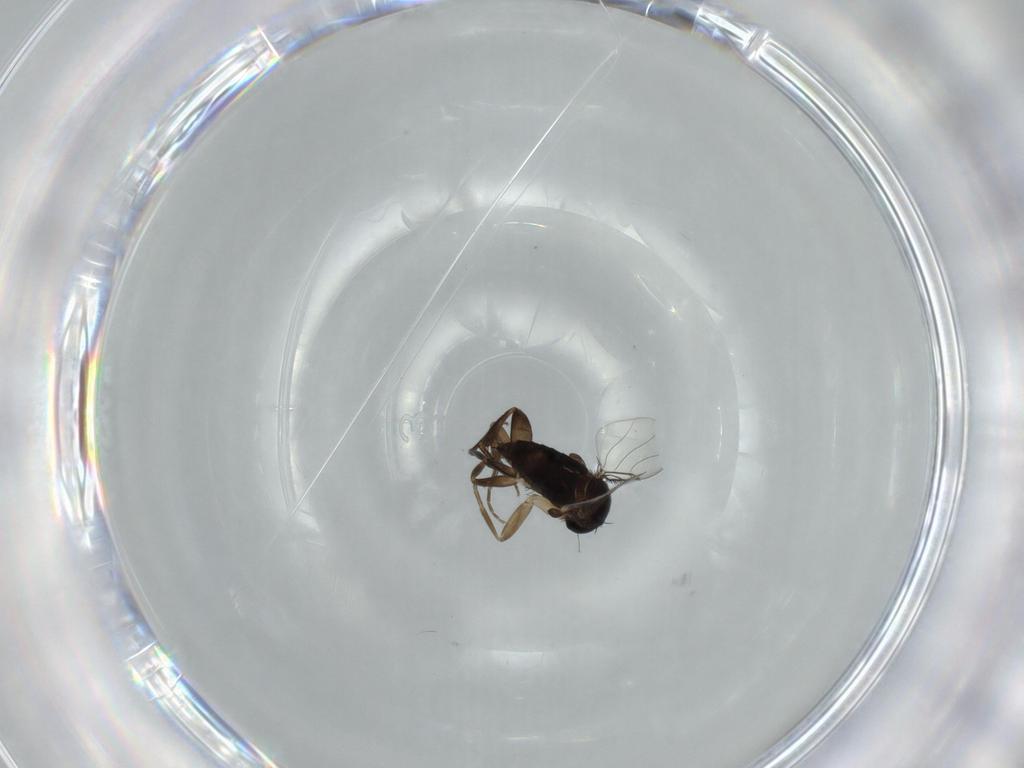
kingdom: Animalia
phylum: Arthropoda
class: Insecta
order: Diptera
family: Phoridae
